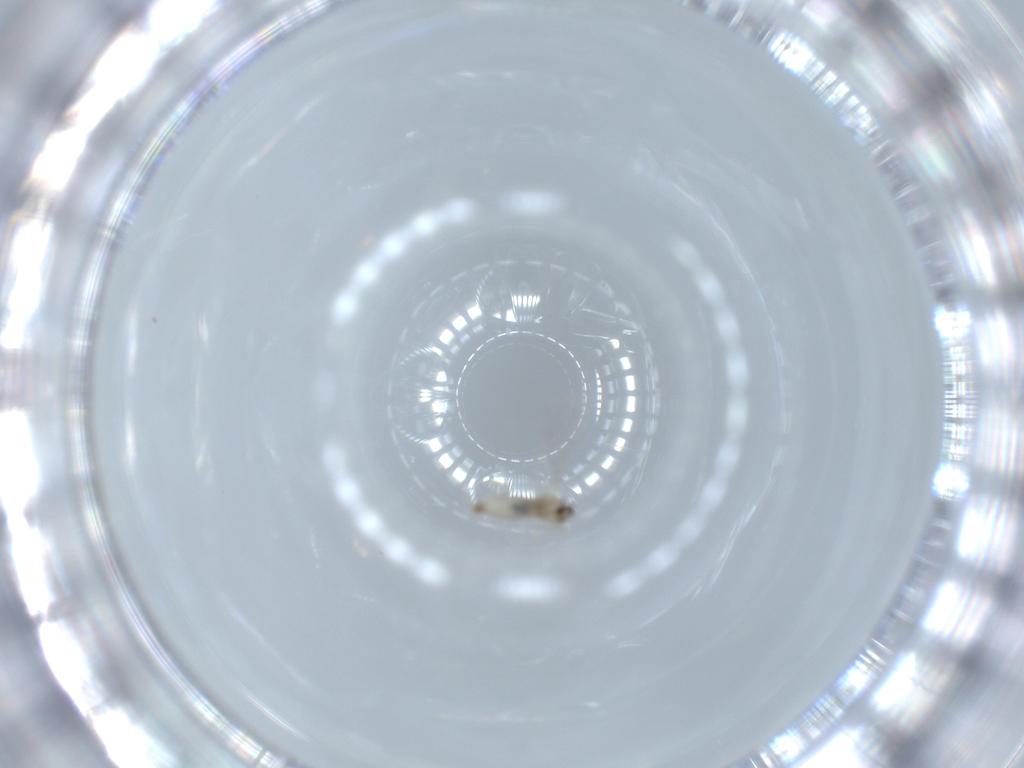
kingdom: Animalia
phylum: Arthropoda
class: Insecta
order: Diptera
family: Cecidomyiidae
